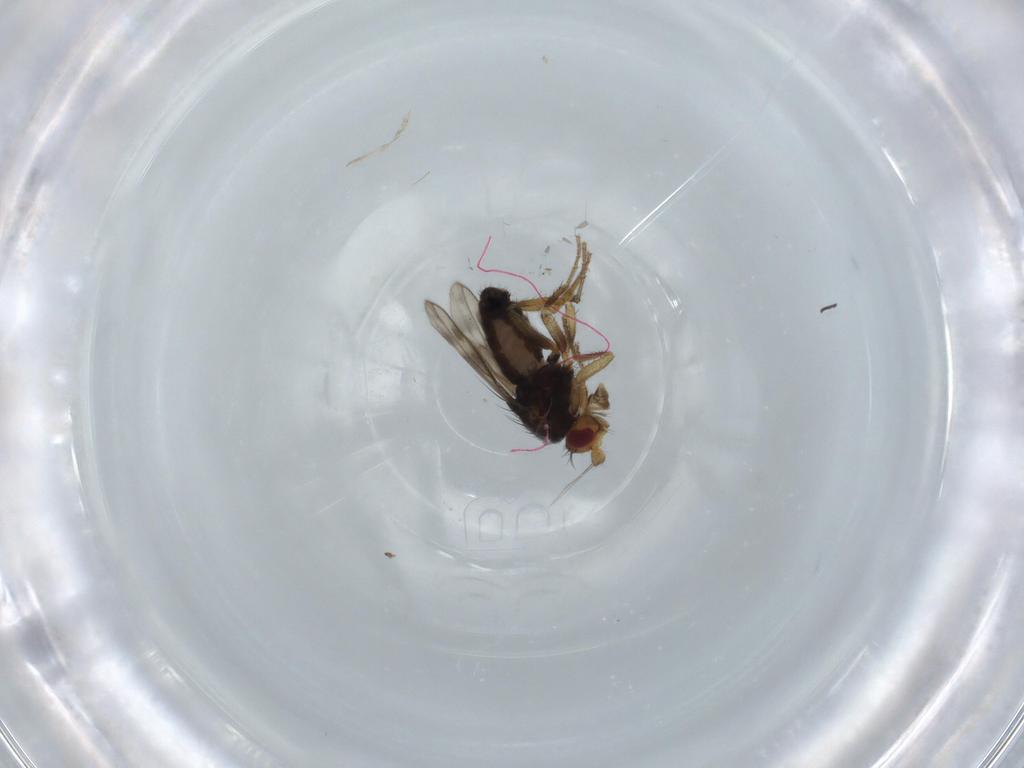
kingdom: Animalia
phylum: Arthropoda
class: Insecta
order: Diptera
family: Sphaeroceridae
